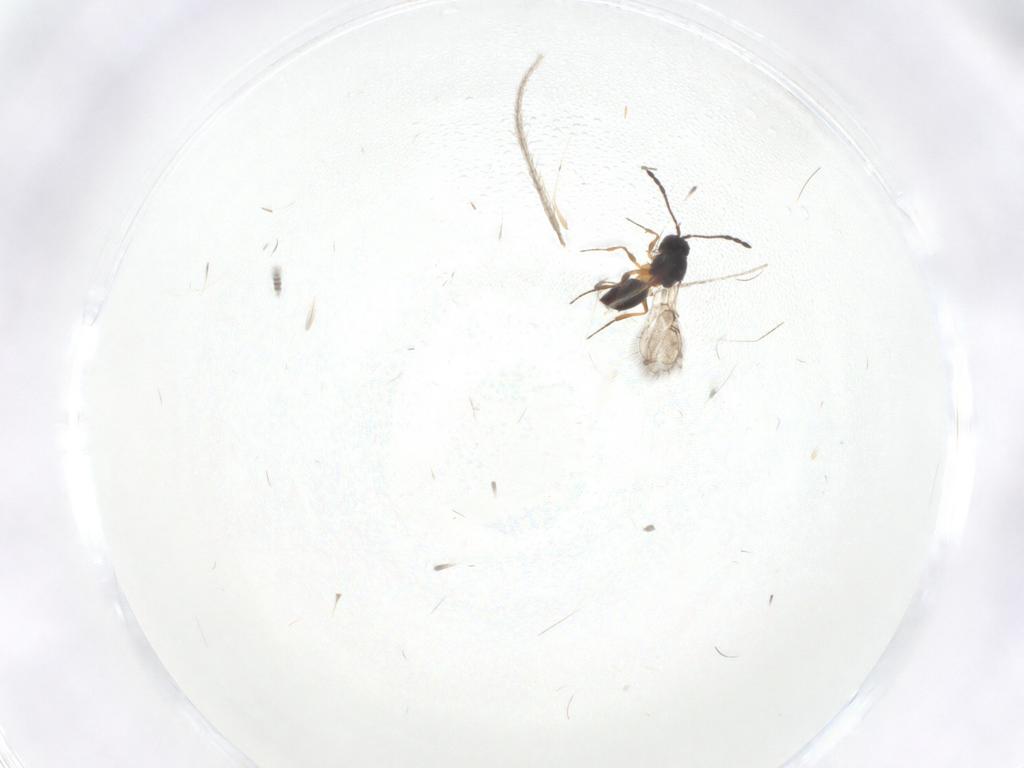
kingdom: Animalia
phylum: Arthropoda
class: Insecta
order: Hymenoptera
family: Figitidae
